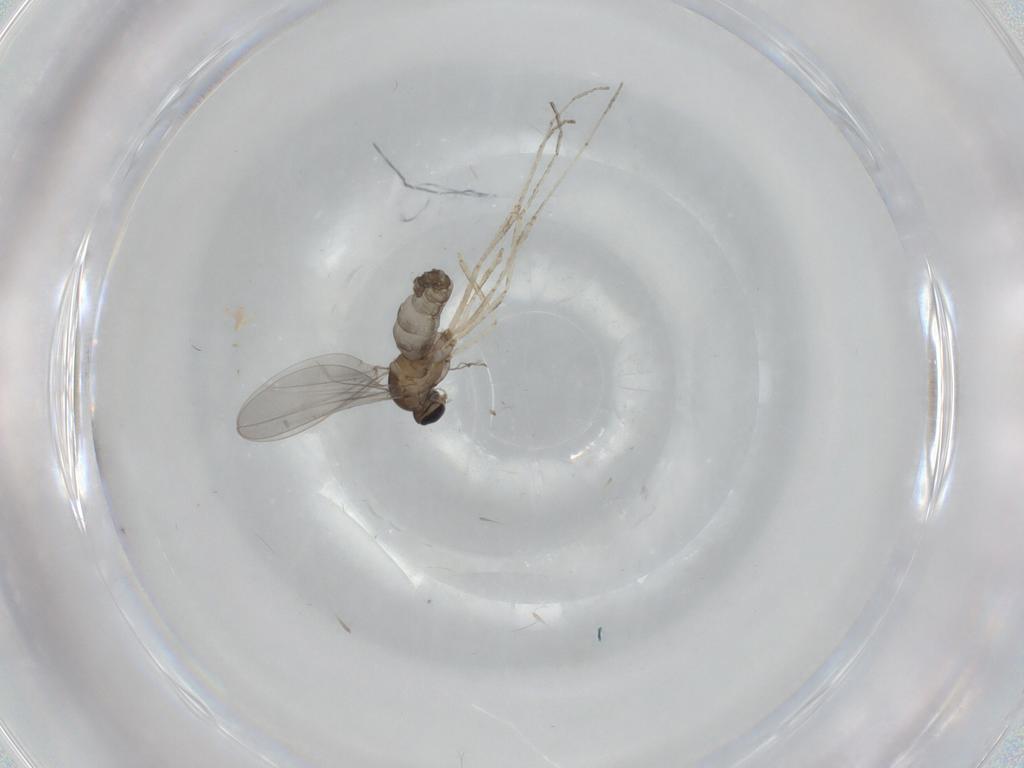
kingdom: Animalia
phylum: Arthropoda
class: Insecta
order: Diptera
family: Cecidomyiidae
